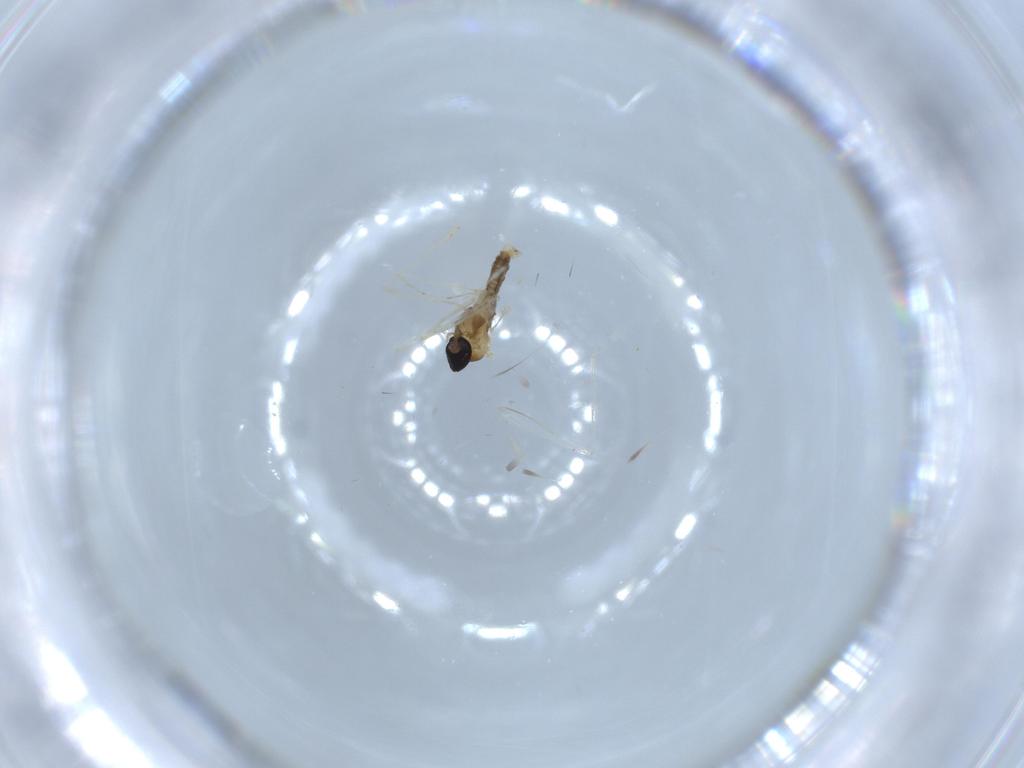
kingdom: Animalia
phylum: Arthropoda
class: Insecta
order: Diptera
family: Cecidomyiidae
